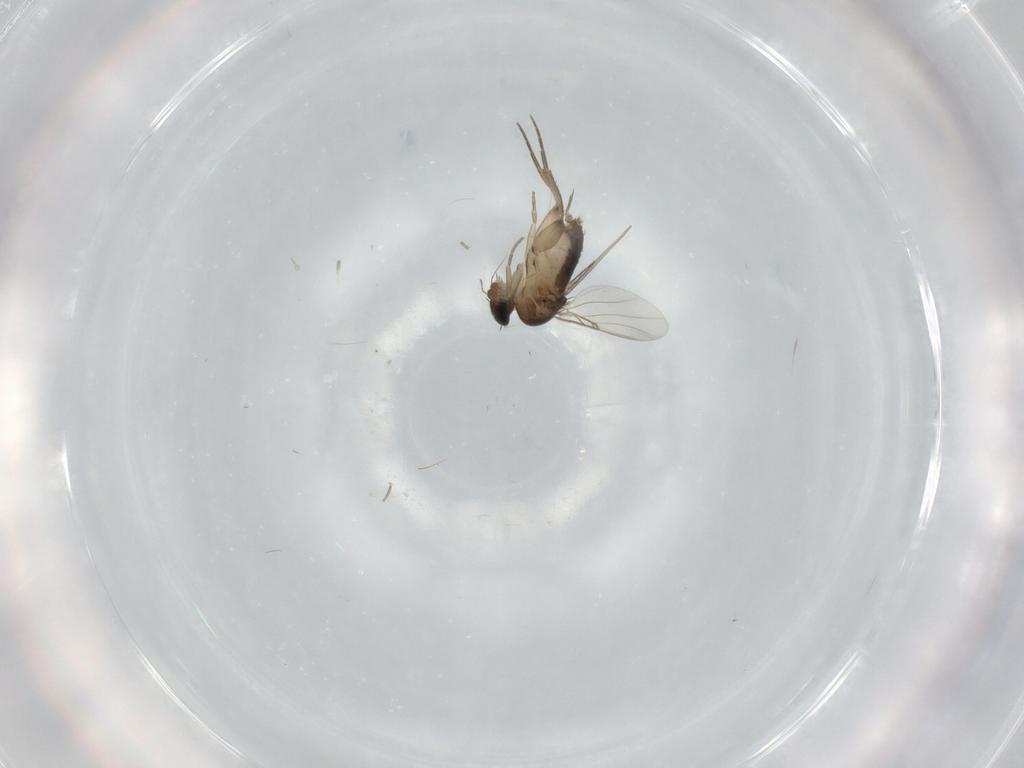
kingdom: Animalia
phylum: Arthropoda
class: Insecta
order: Diptera
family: Phoridae
